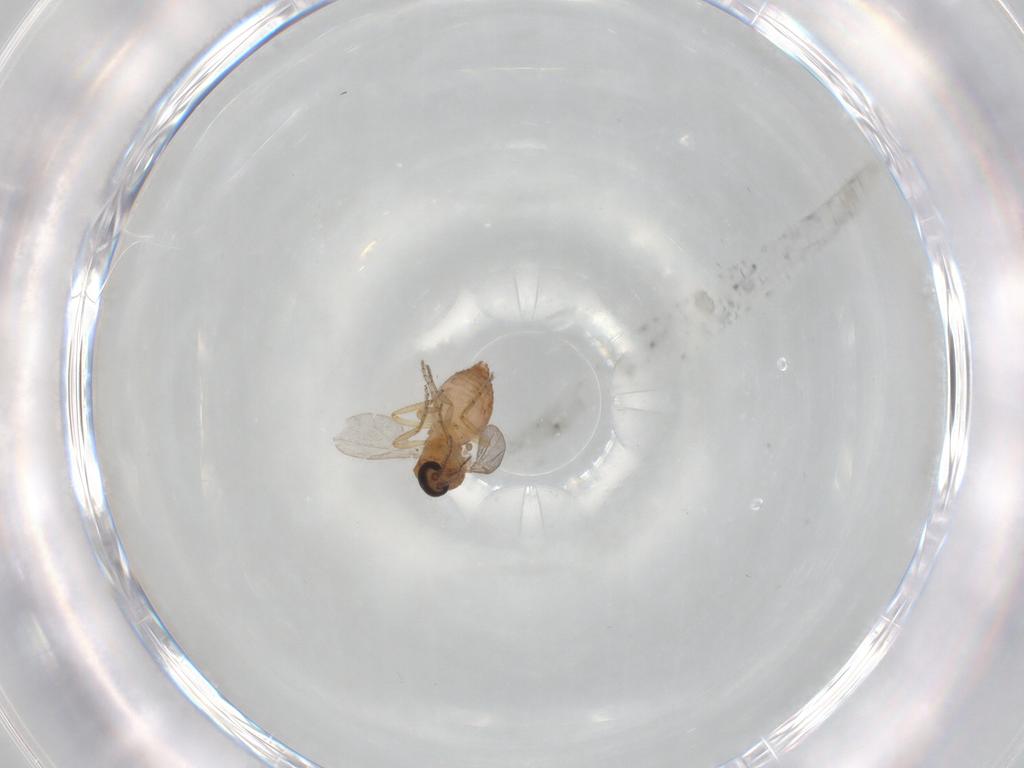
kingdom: Animalia
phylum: Arthropoda
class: Insecta
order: Diptera
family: Ceratopogonidae
